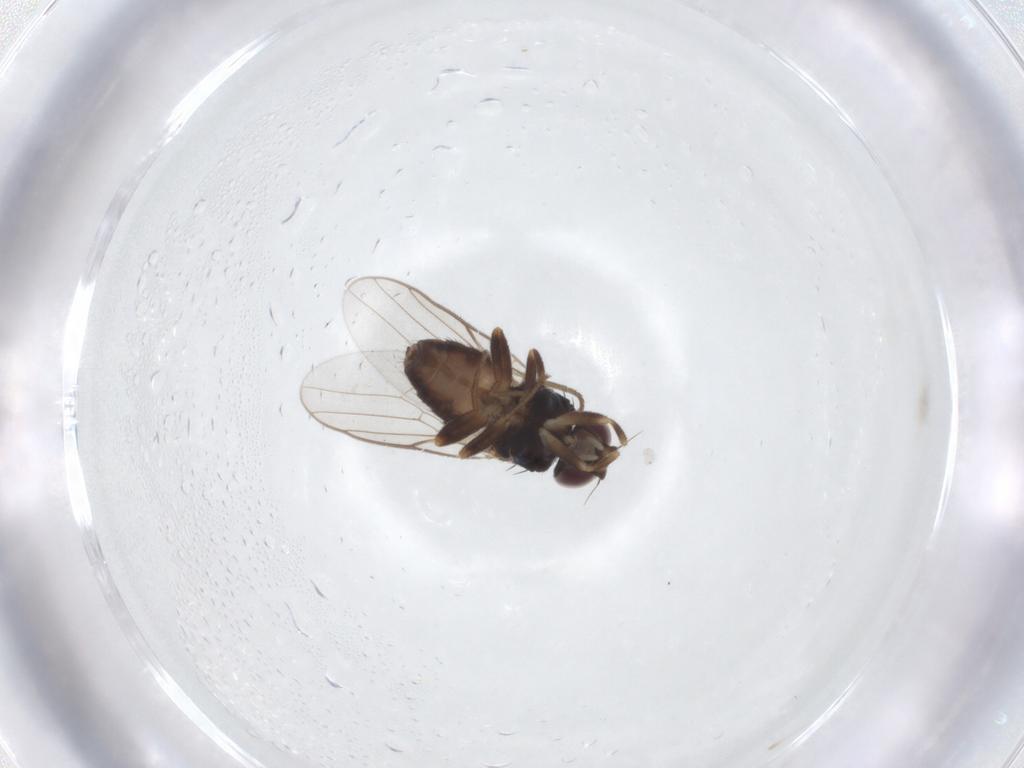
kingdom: Animalia
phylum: Arthropoda
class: Insecta
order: Diptera
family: Chloropidae
